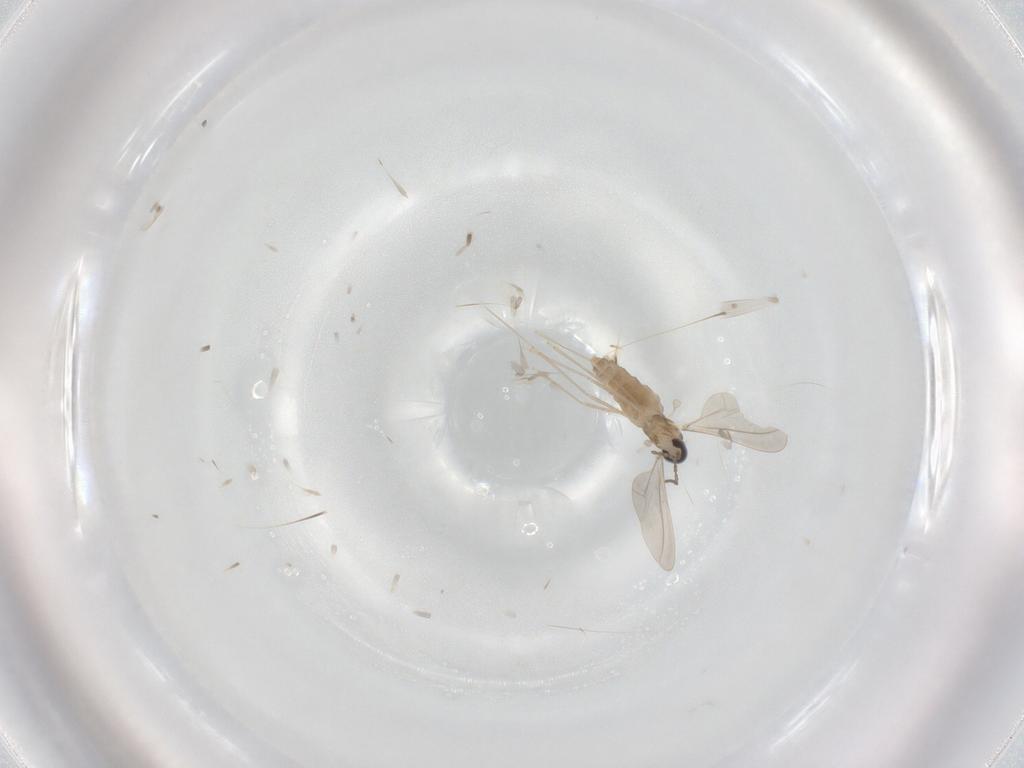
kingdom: Animalia
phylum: Arthropoda
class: Insecta
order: Diptera
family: Cecidomyiidae
